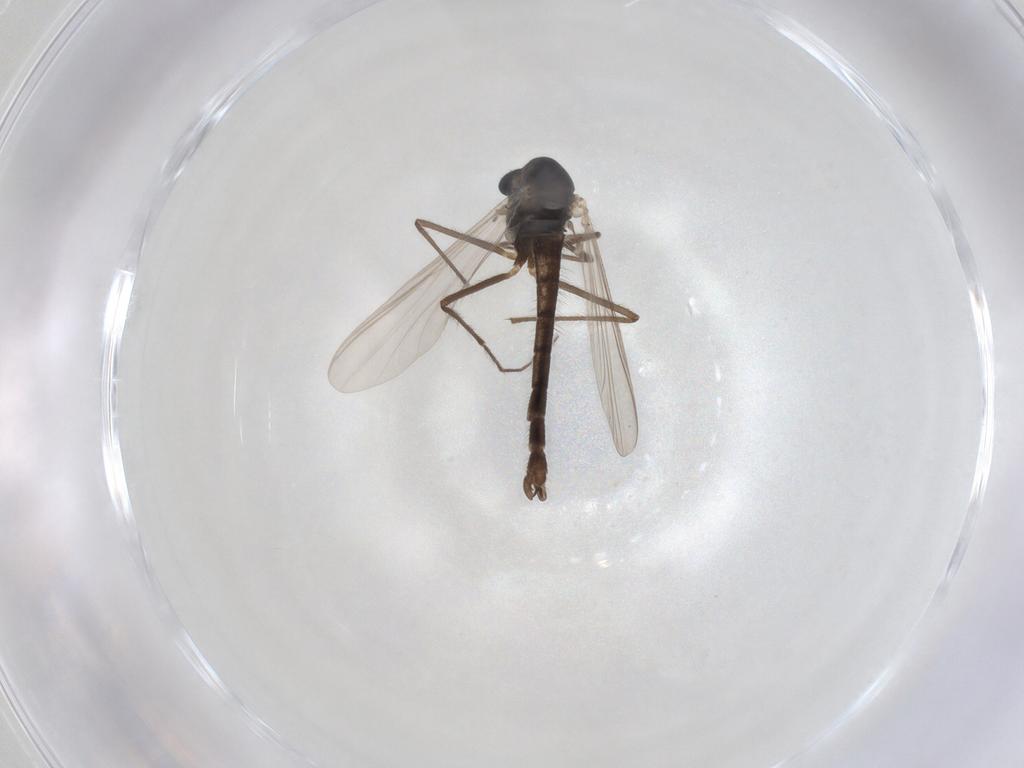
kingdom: Animalia
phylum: Arthropoda
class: Insecta
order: Diptera
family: Chironomidae
